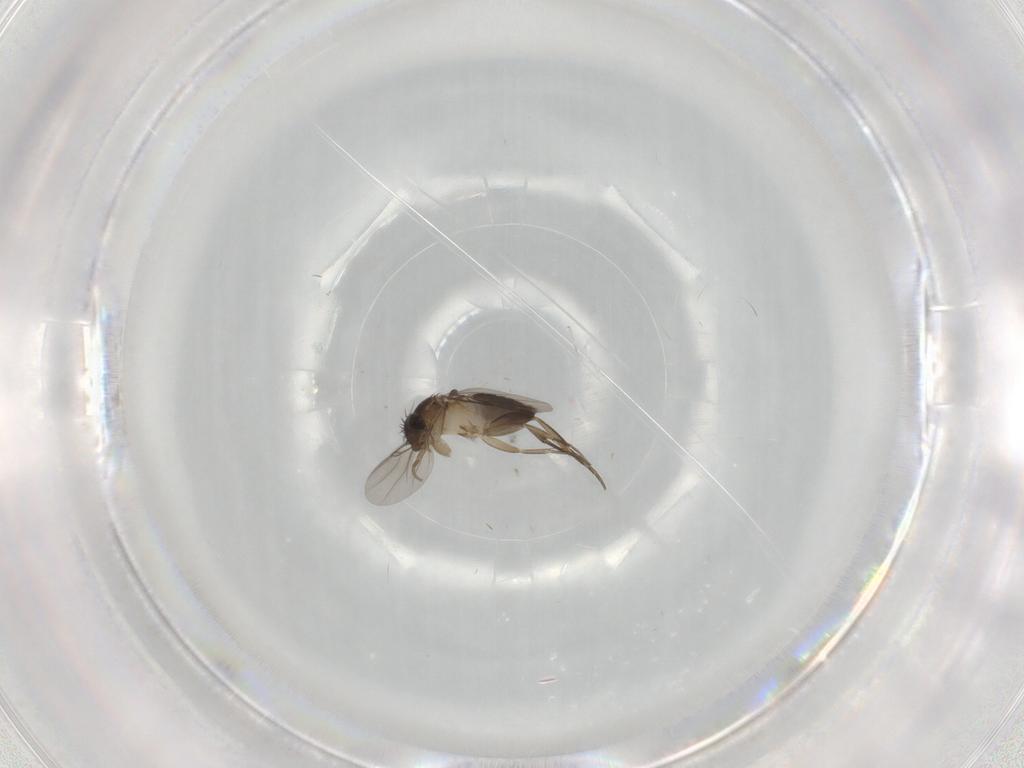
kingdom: Animalia
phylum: Arthropoda
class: Insecta
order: Diptera
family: Phoridae
